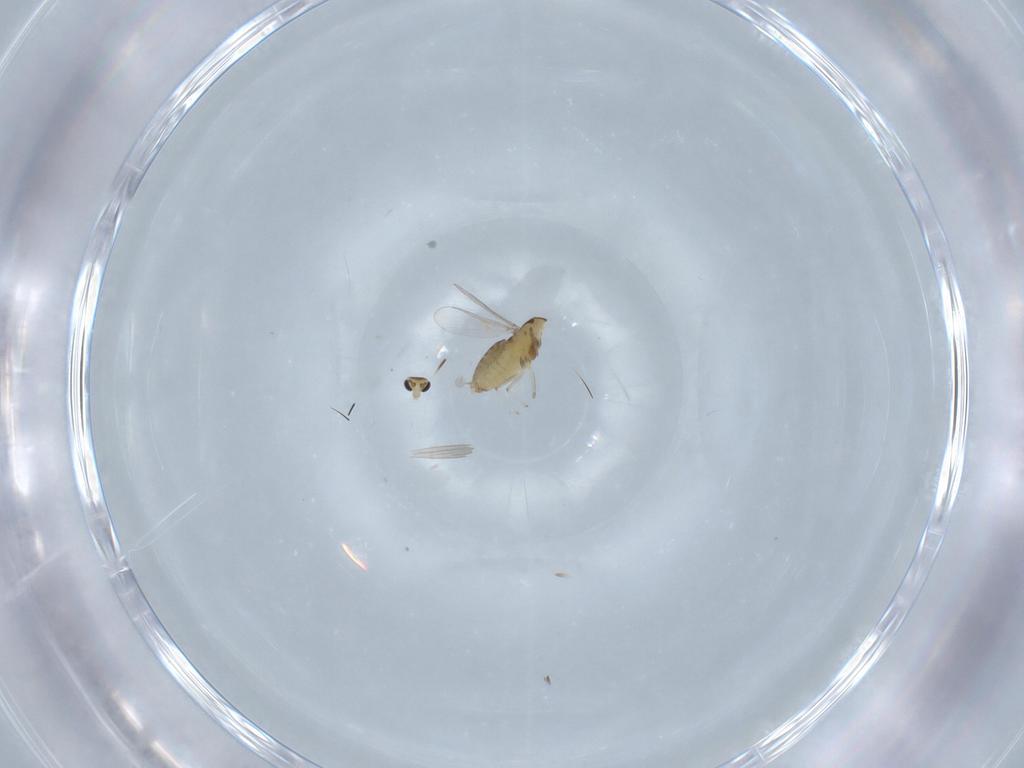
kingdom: Animalia
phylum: Arthropoda
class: Insecta
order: Diptera
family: Chironomidae
